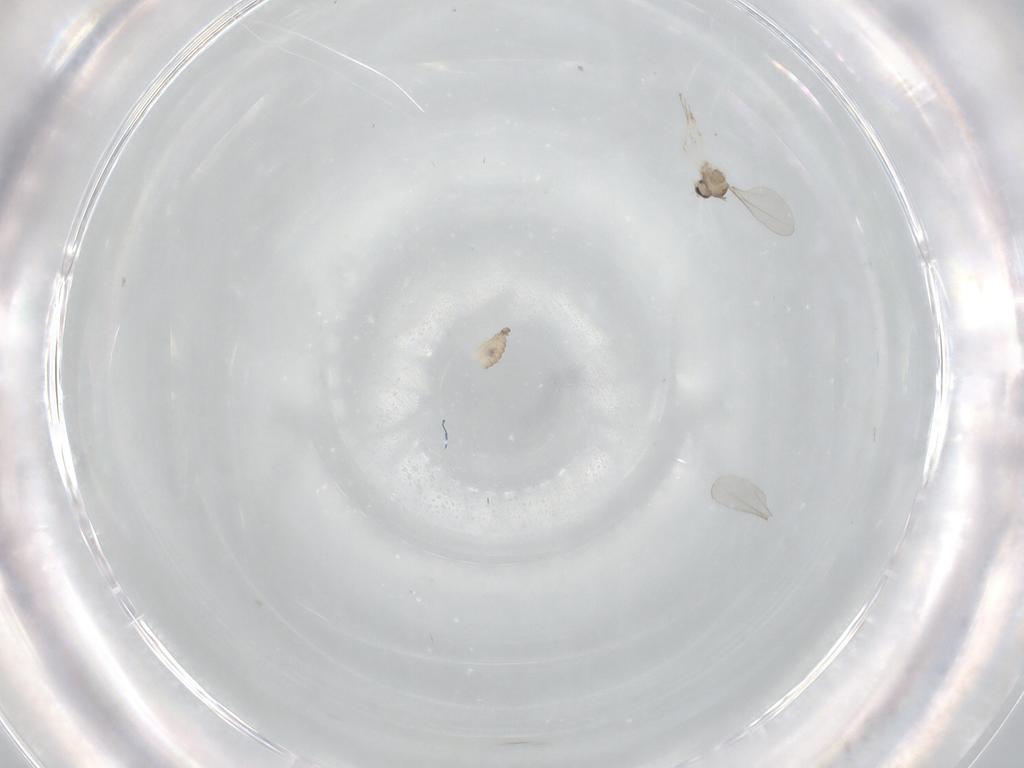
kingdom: Animalia
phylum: Arthropoda
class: Insecta
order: Diptera
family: Cecidomyiidae
